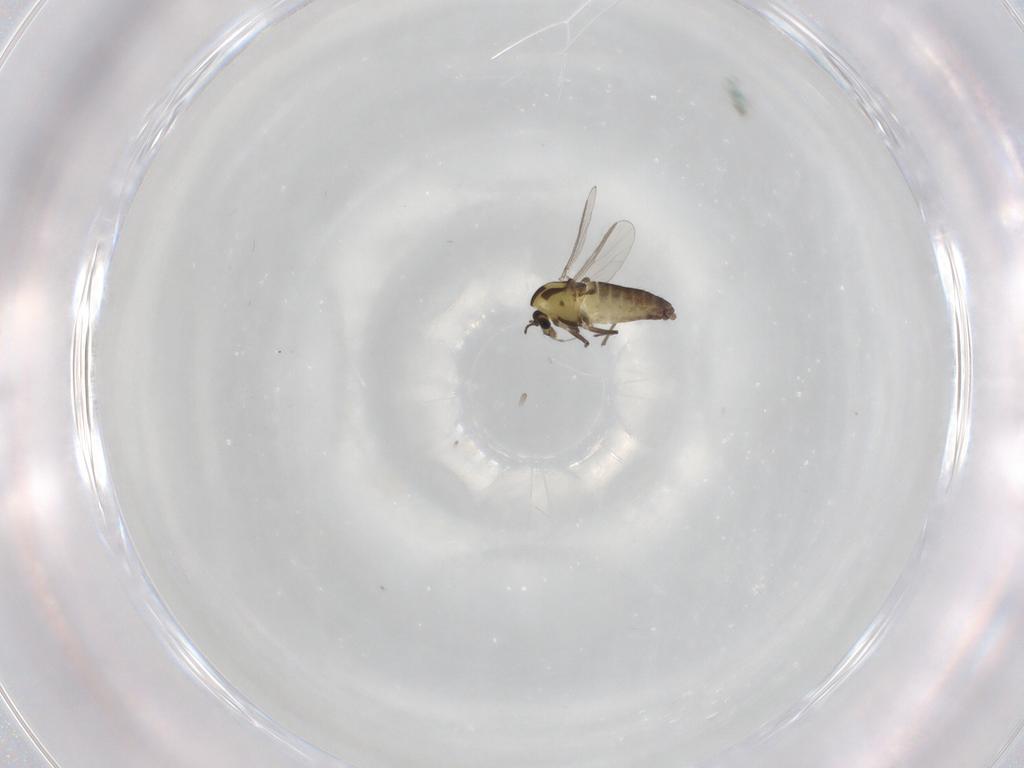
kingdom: Animalia
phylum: Arthropoda
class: Insecta
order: Diptera
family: Chironomidae
